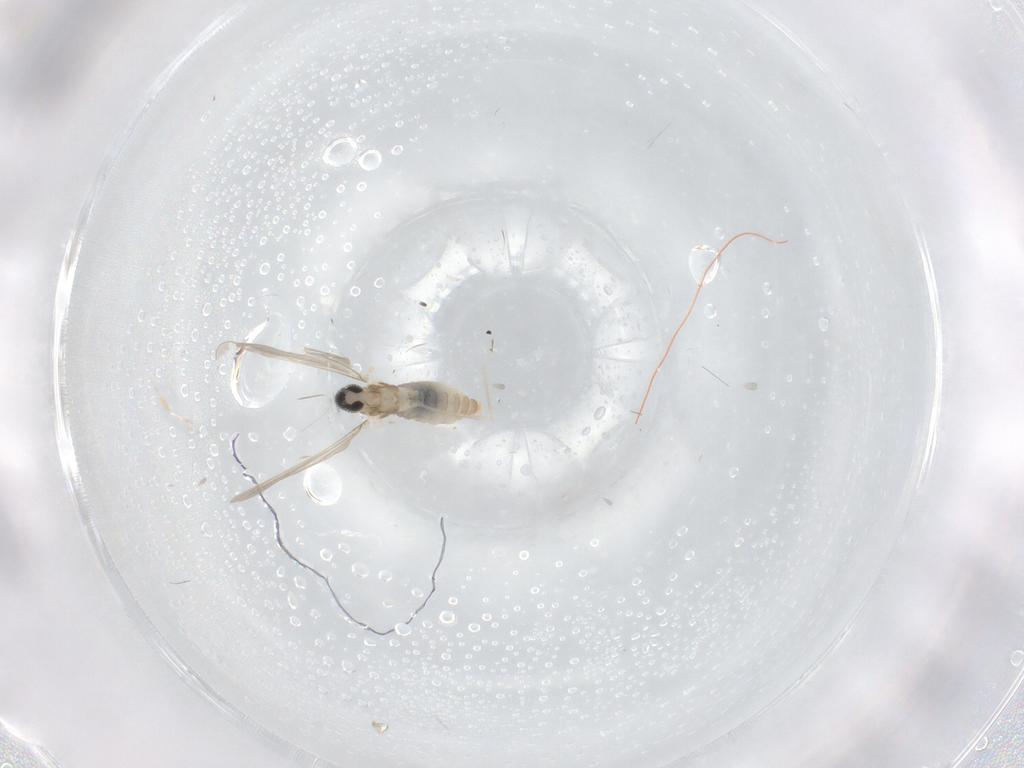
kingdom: Animalia
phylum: Arthropoda
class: Insecta
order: Diptera
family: Cecidomyiidae
